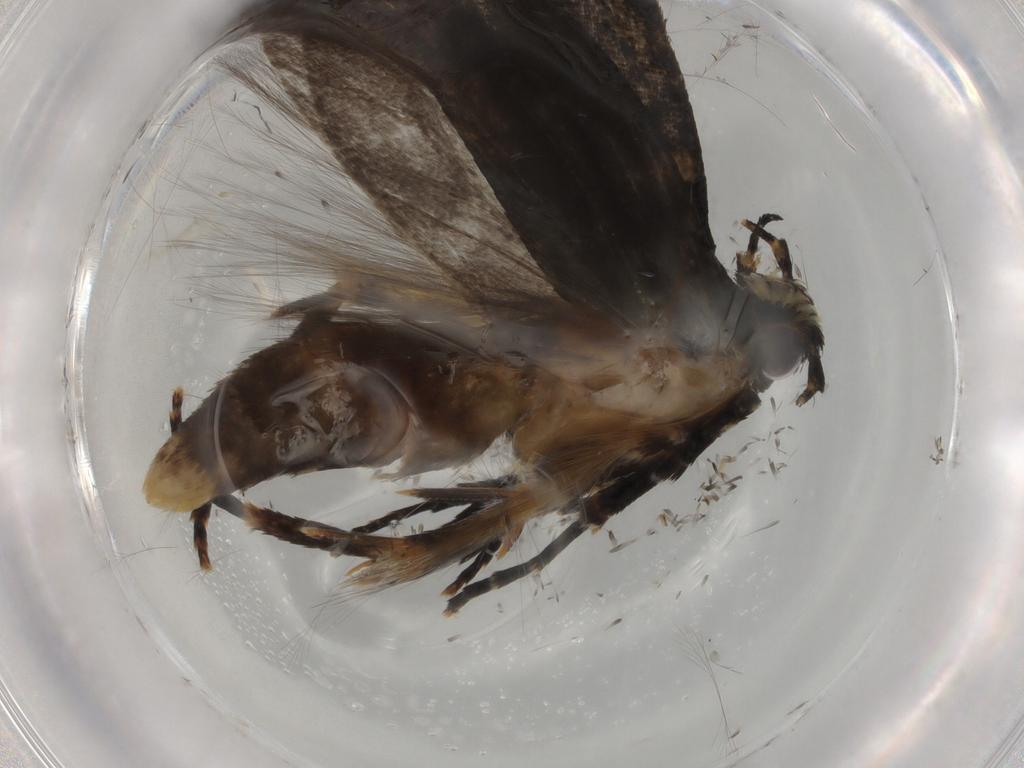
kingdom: Animalia
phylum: Arthropoda
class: Insecta
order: Lepidoptera
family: Gelechiidae
